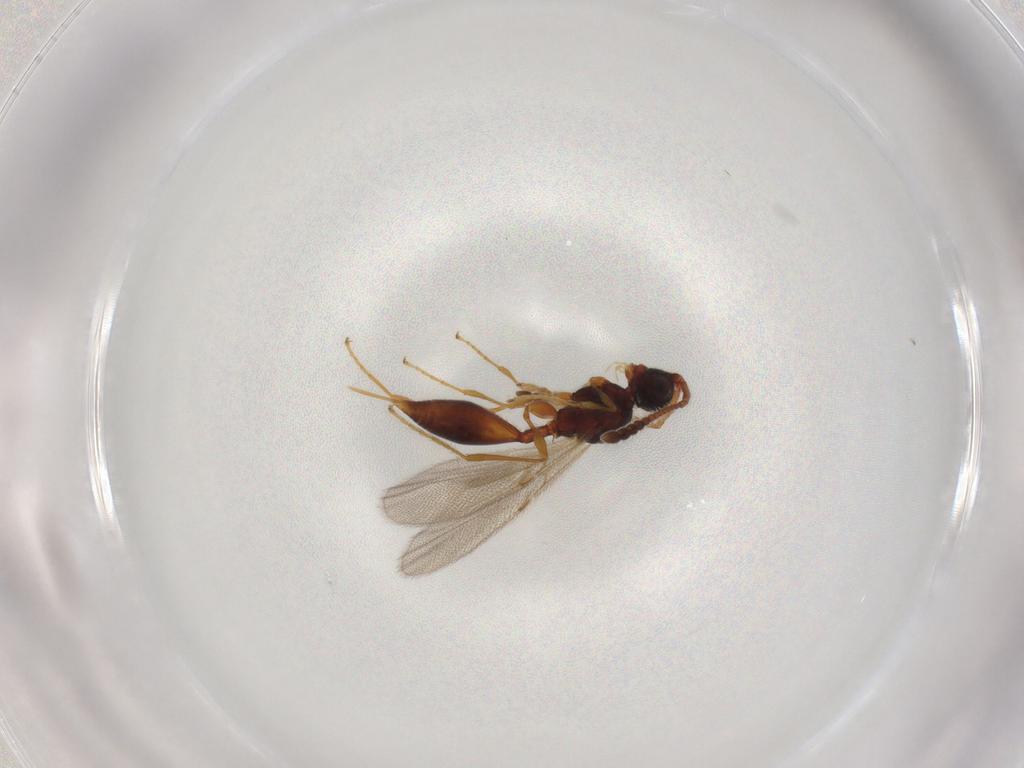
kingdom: Animalia
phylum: Arthropoda
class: Insecta
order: Hymenoptera
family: Diapriidae
